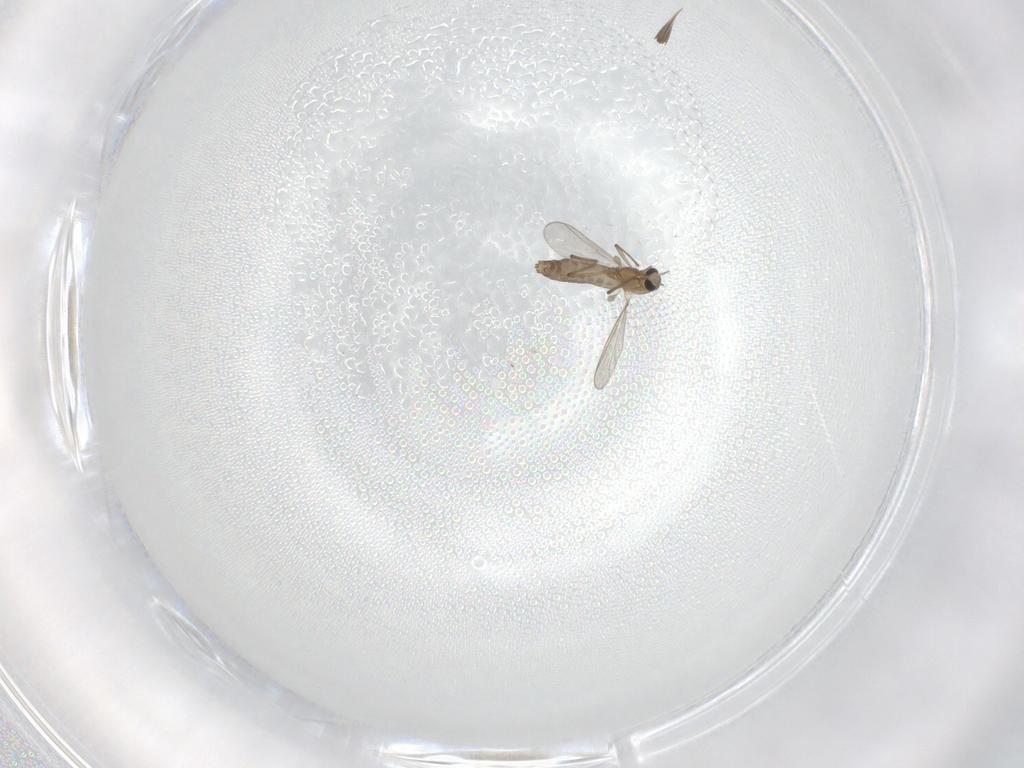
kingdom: Animalia
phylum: Arthropoda
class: Insecta
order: Diptera
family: Chironomidae
